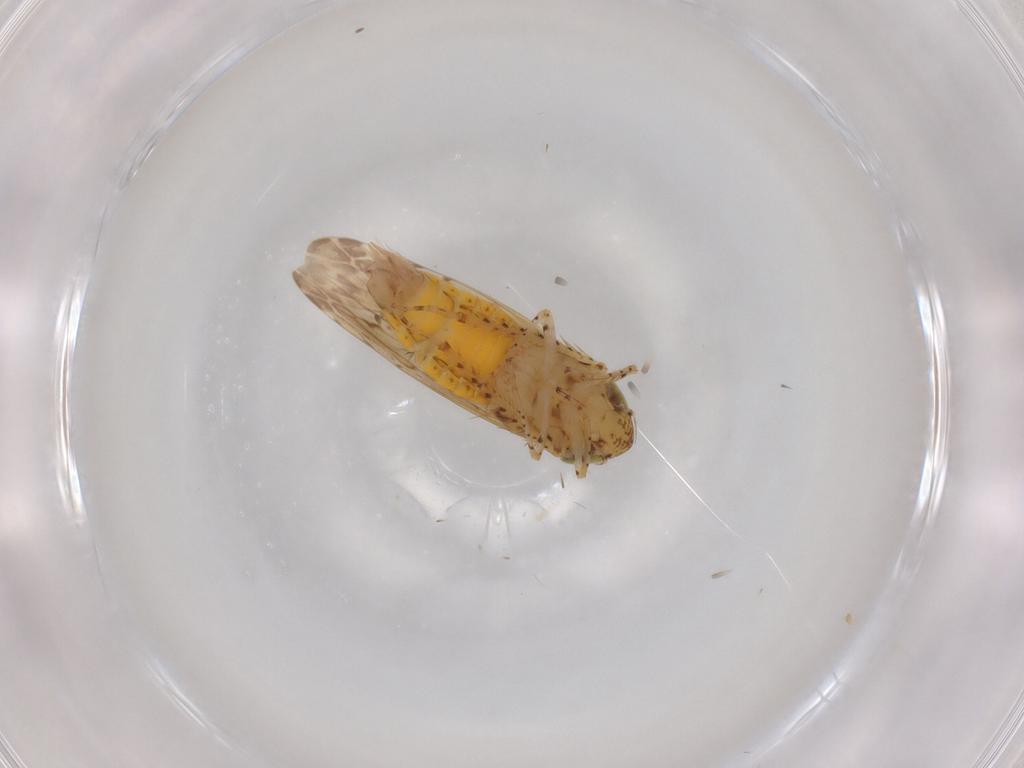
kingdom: Animalia
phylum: Arthropoda
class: Insecta
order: Hemiptera
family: Cicadellidae
